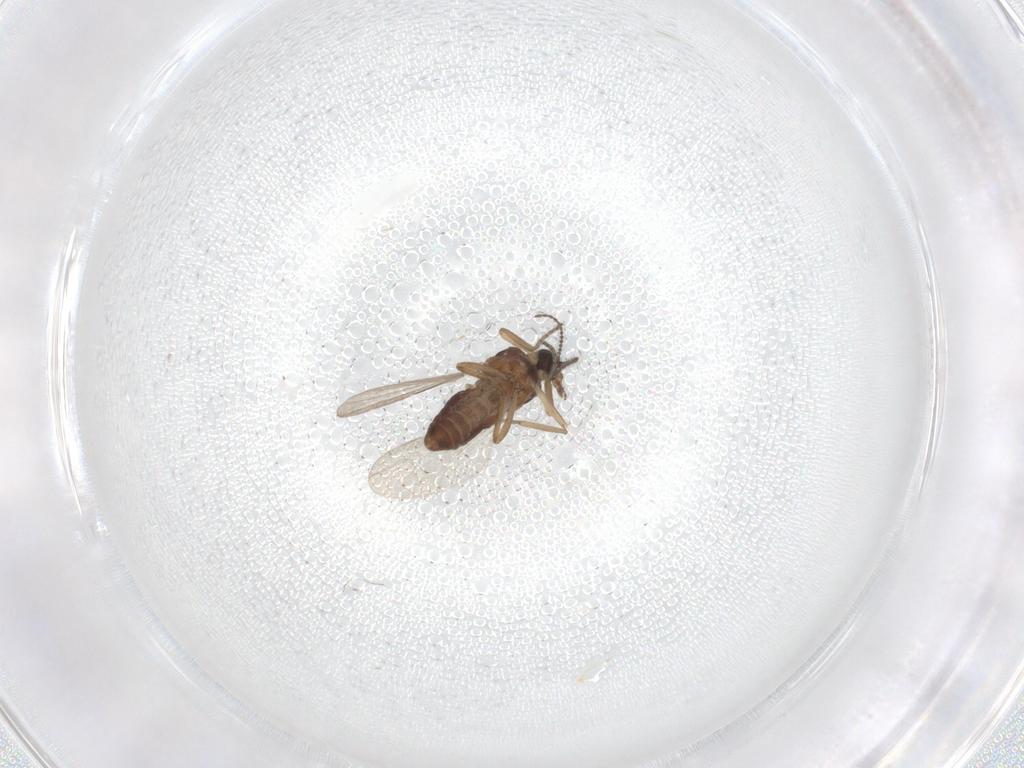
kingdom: Animalia
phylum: Arthropoda
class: Insecta
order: Diptera
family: Ceratopogonidae
